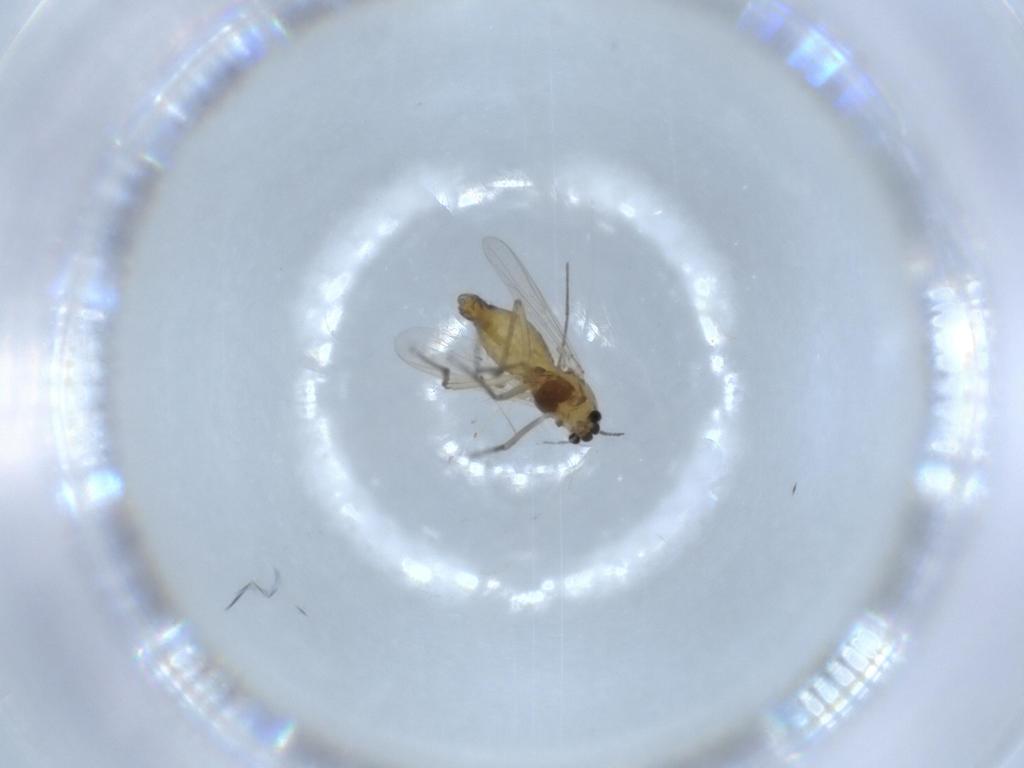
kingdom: Animalia
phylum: Arthropoda
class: Insecta
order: Diptera
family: Chironomidae
